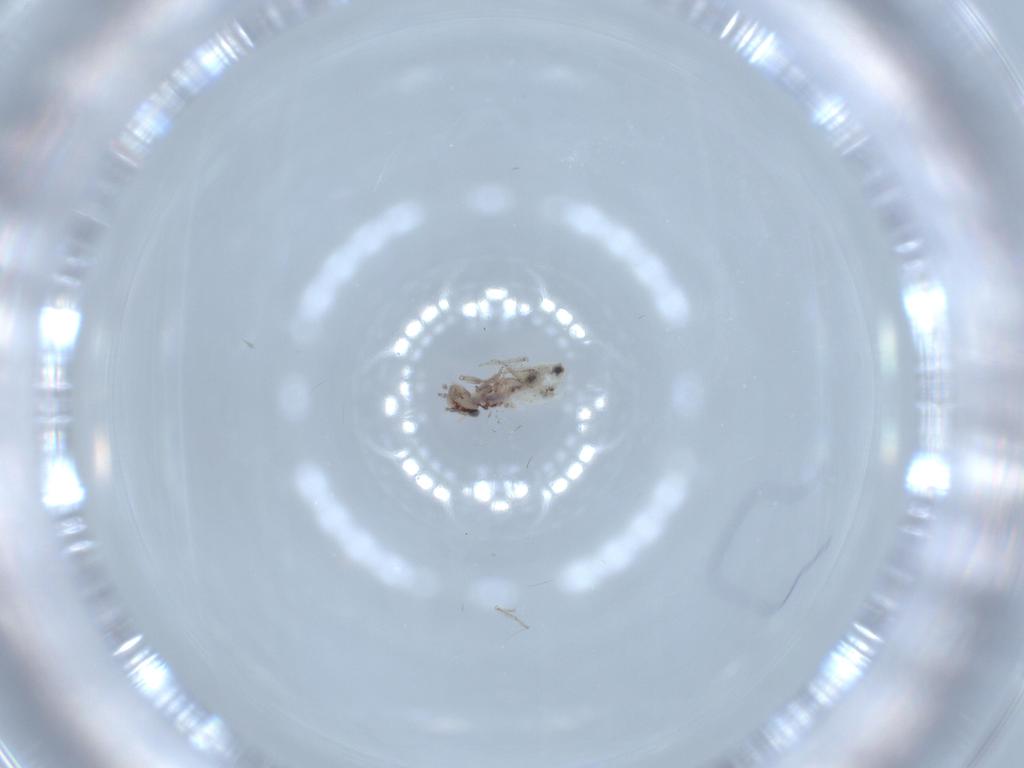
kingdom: Animalia
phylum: Arthropoda
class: Insecta
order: Psocodea
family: Lepidopsocidae
